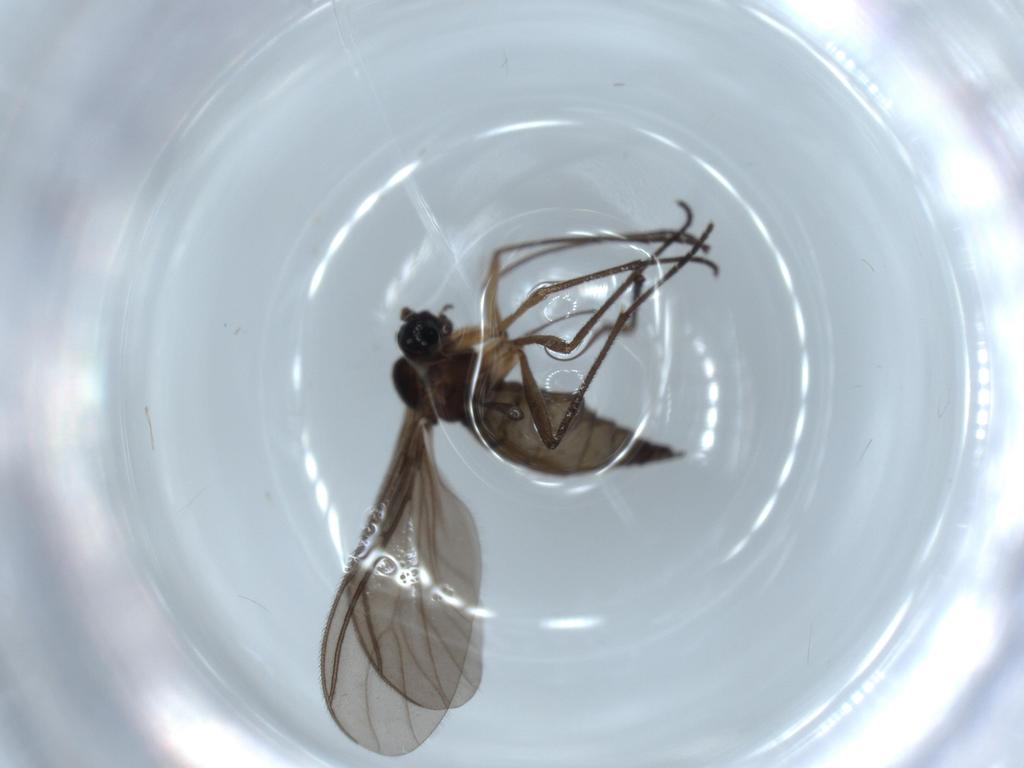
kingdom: Animalia
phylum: Arthropoda
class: Insecta
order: Diptera
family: Sciaridae
